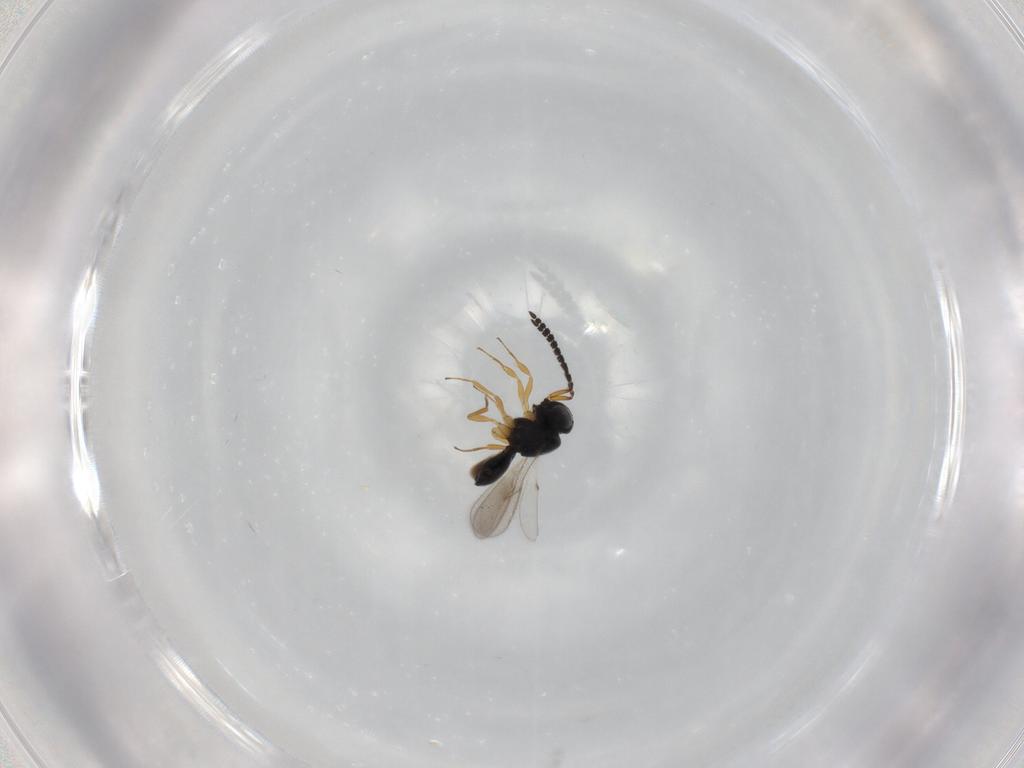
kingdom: Animalia
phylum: Arthropoda
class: Insecta
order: Hymenoptera
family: Scelionidae
